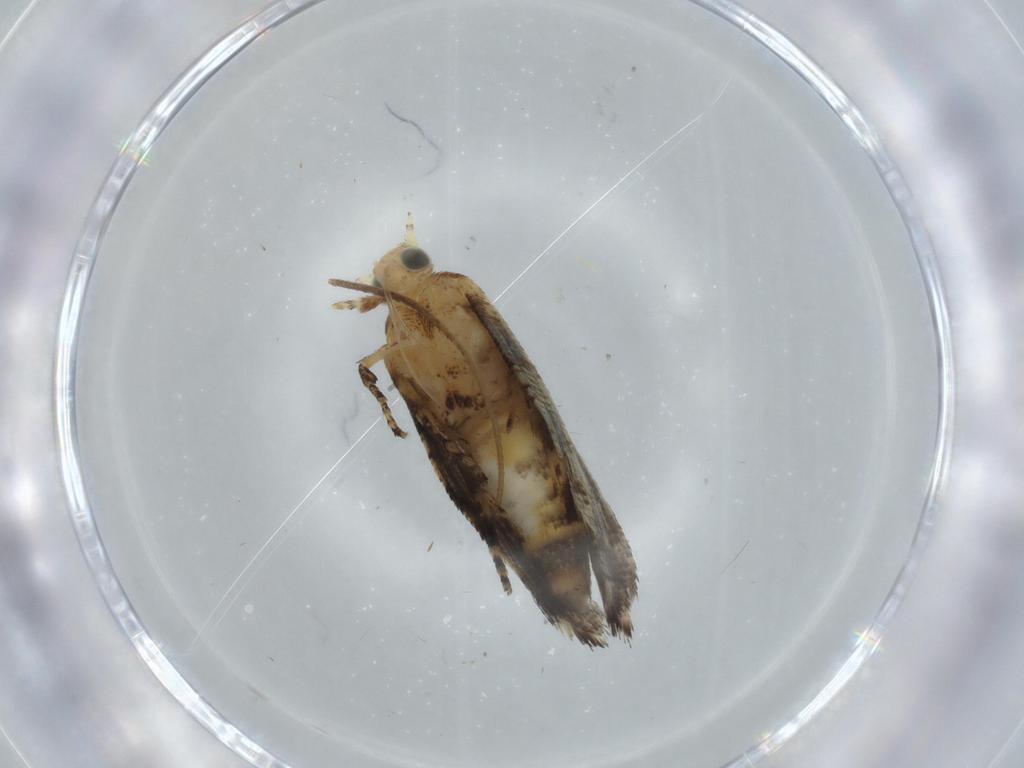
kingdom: Animalia
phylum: Arthropoda
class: Insecta
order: Lepidoptera
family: Glyphipterigidae
